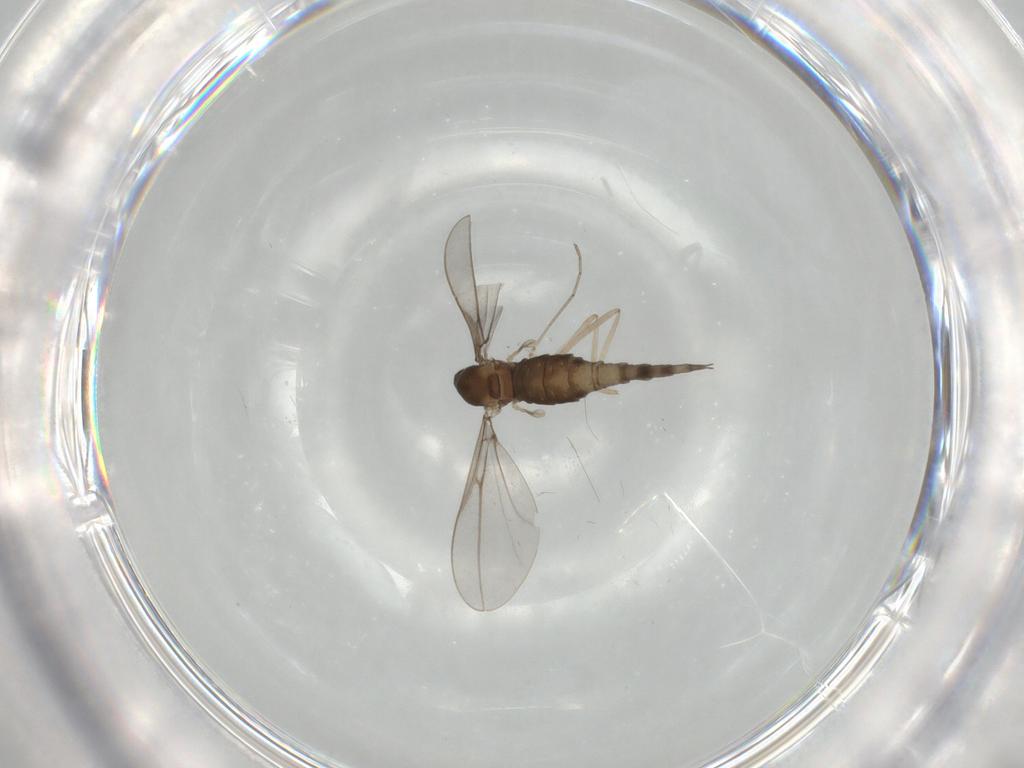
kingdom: Animalia
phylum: Arthropoda
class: Insecta
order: Diptera
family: Cecidomyiidae
